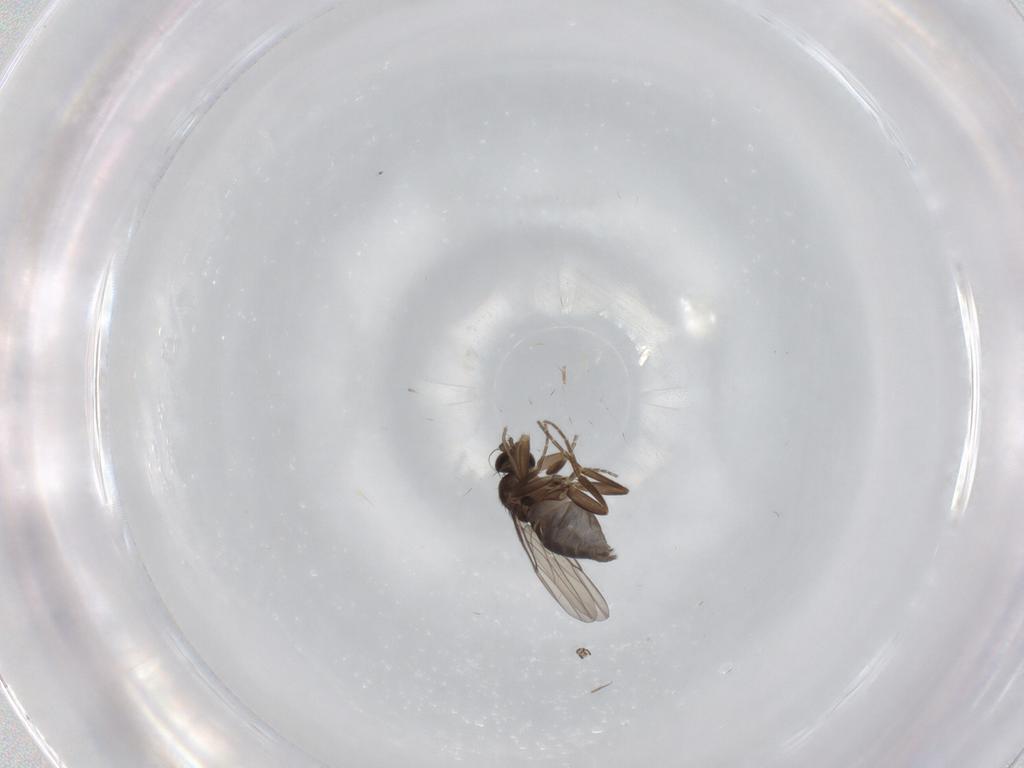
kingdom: Animalia
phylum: Arthropoda
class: Insecta
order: Diptera
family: Phoridae
